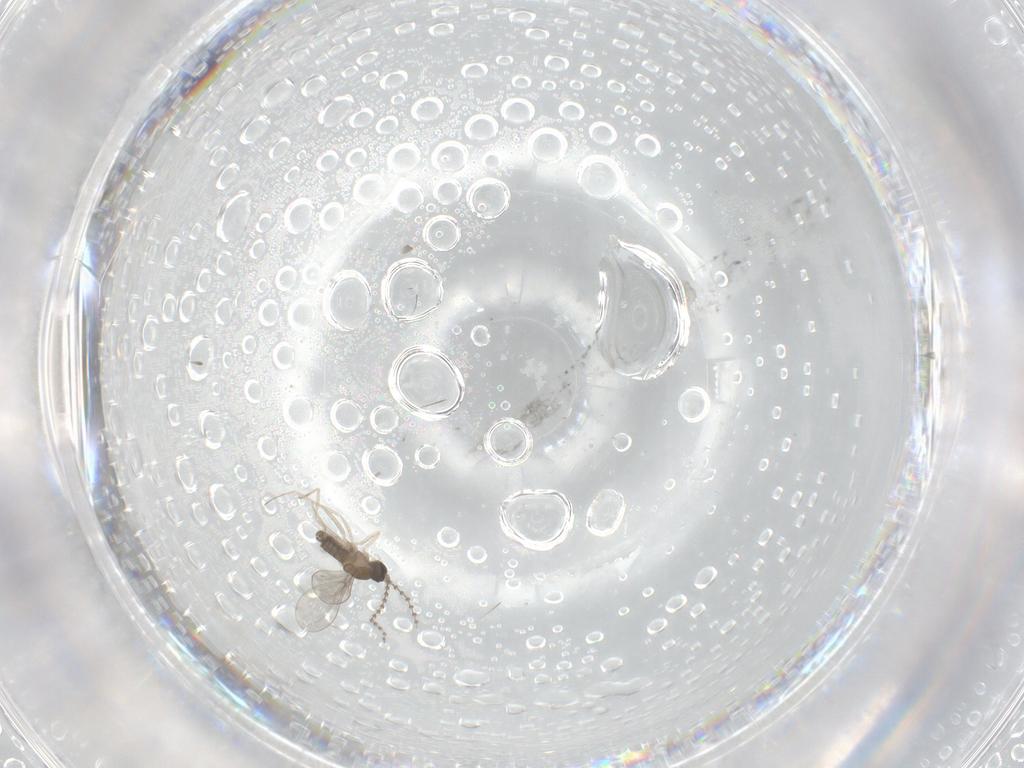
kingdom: Animalia
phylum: Arthropoda
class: Insecta
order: Diptera
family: Cecidomyiidae
